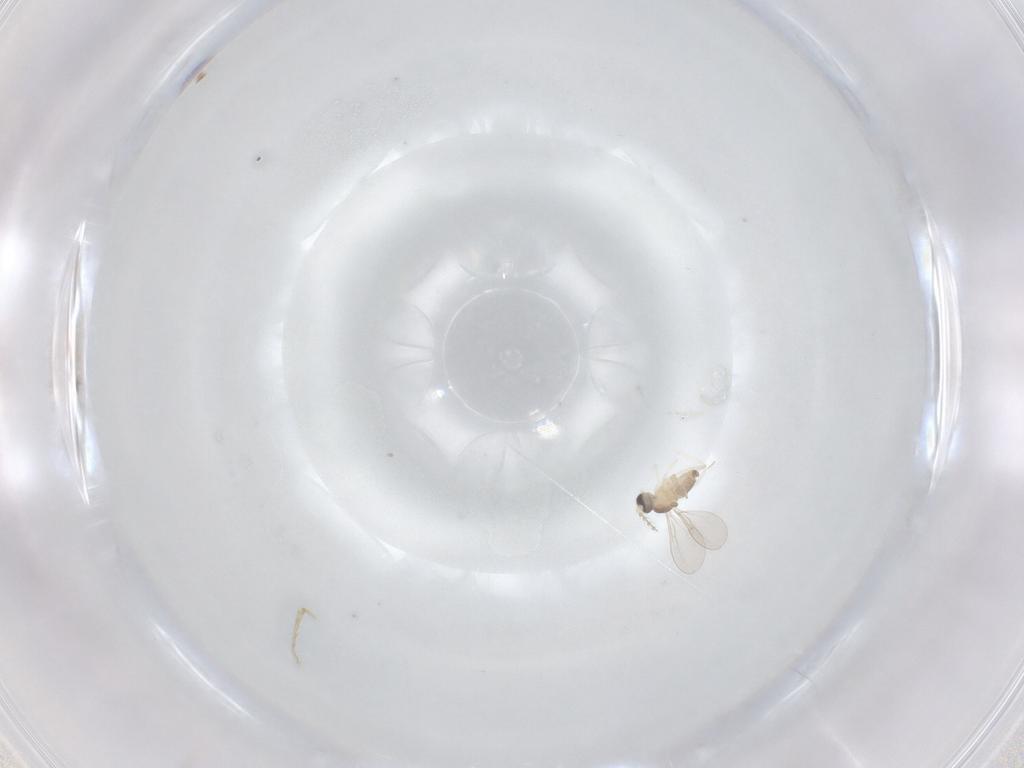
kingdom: Animalia
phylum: Arthropoda
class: Insecta
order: Diptera
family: Cecidomyiidae
